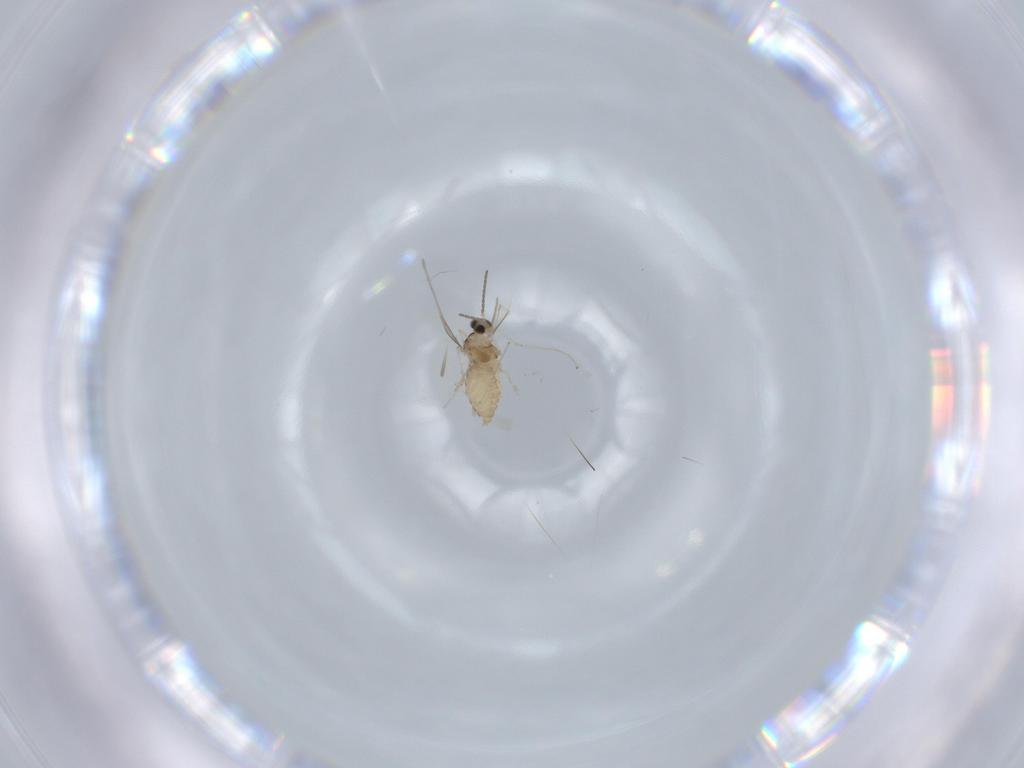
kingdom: Animalia
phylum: Arthropoda
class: Insecta
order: Diptera
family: Cecidomyiidae
